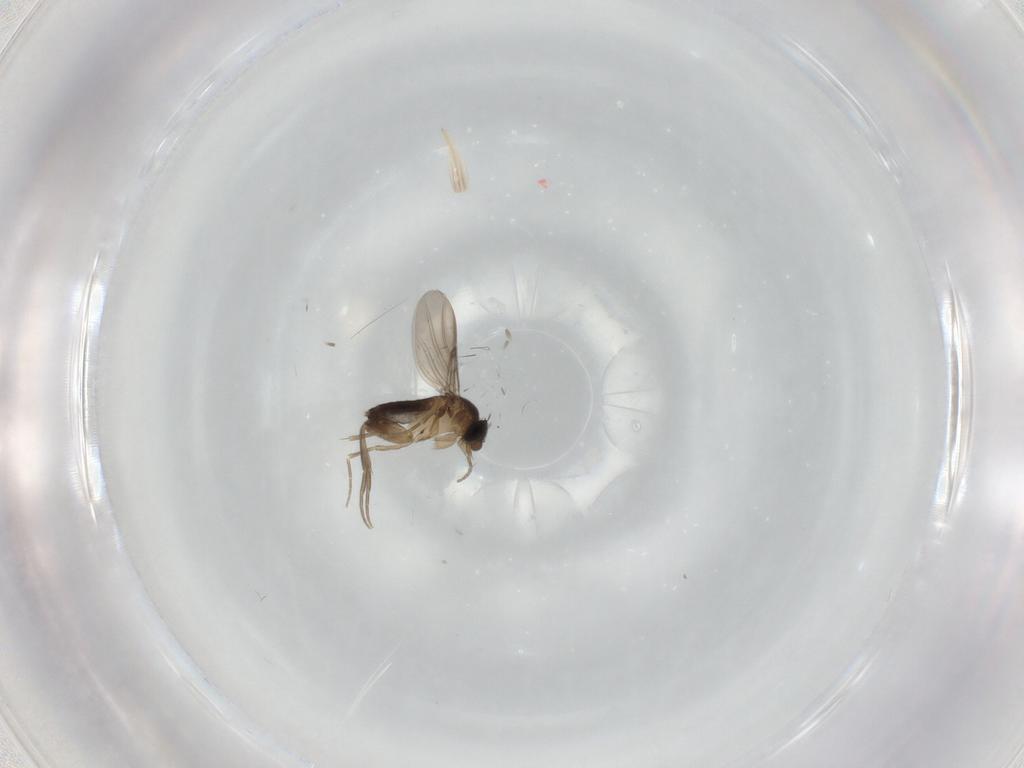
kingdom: Animalia
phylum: Arthropoda
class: Insecta
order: Diptera
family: Phoridae
